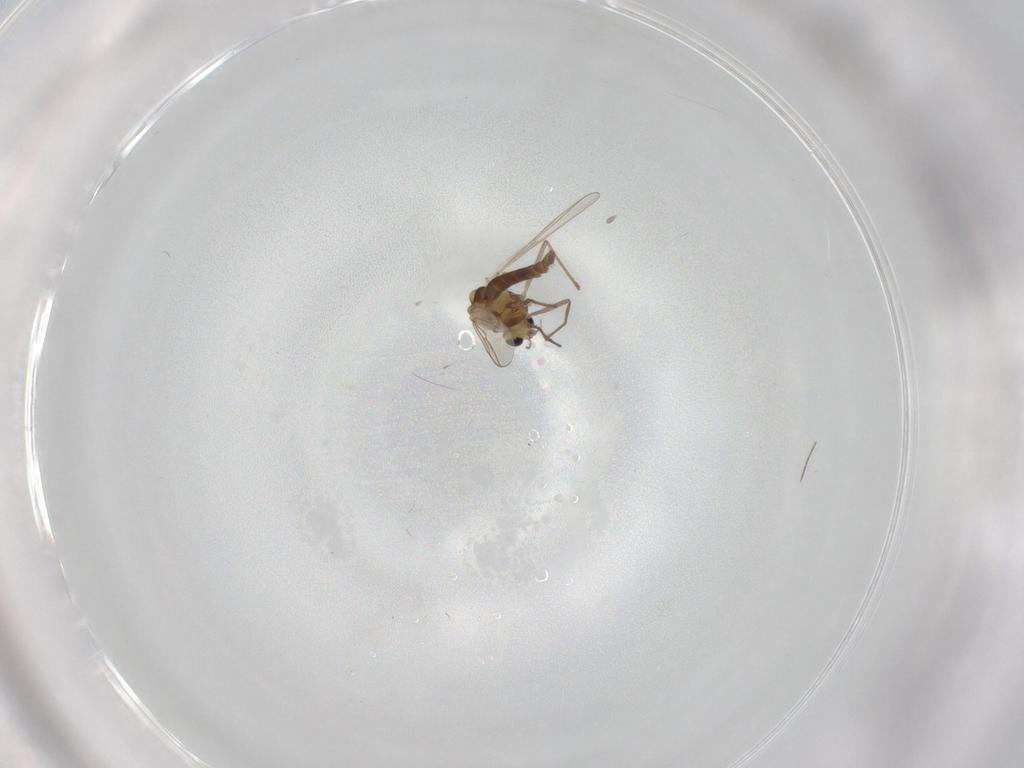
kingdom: Animalia
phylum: Arthropoda
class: Insecta
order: Diptera
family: Chironomidae
